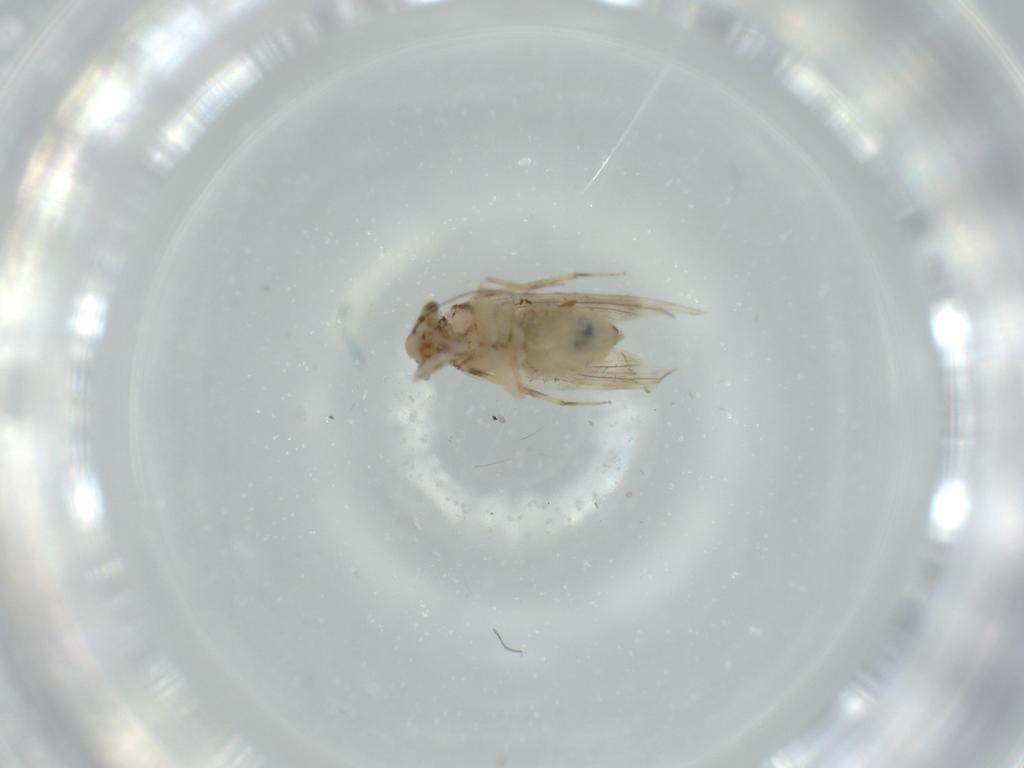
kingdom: Animalia
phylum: Arthropoda
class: Insecta
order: Psocodea
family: Lepidopsocidae
